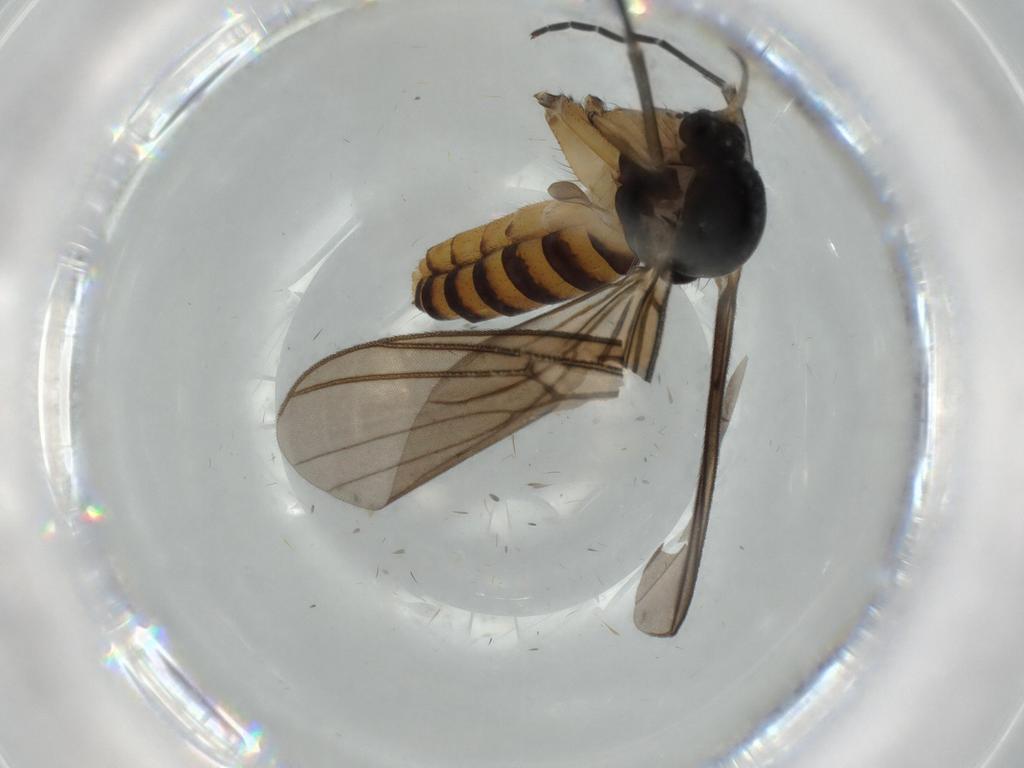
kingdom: Animalia
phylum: Arthropoda
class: Insecta
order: Diptera
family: Mycetophilidae
